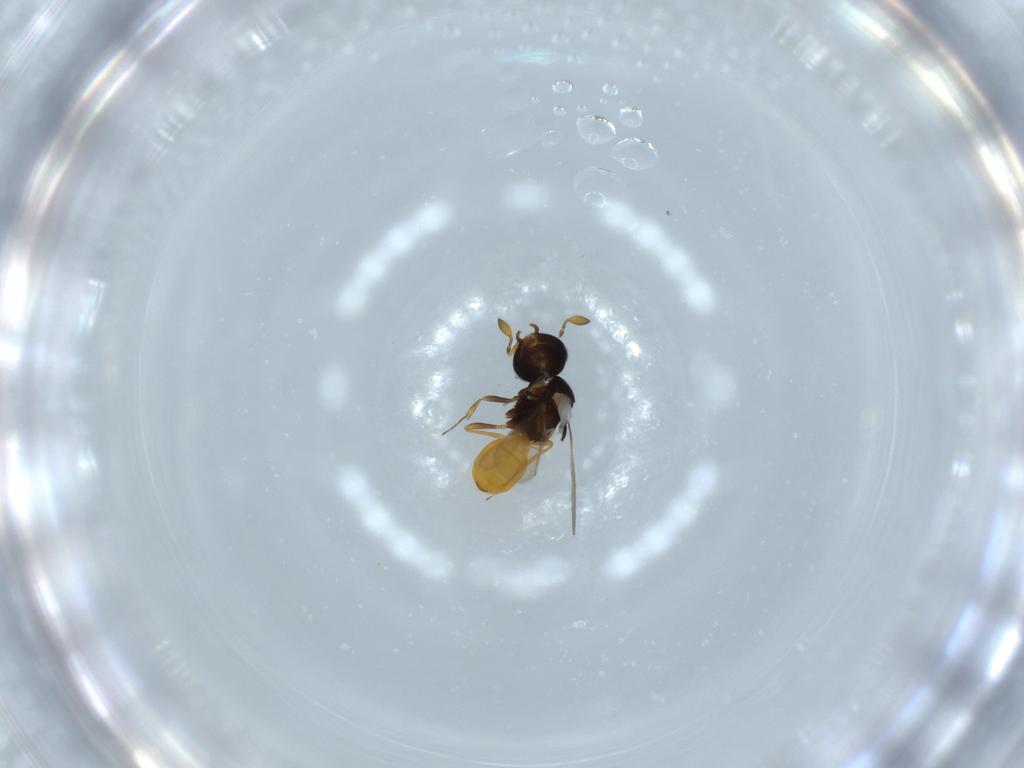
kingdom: Animalia
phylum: Arthropoda
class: Insecta
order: Hymenoptera
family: Scelionidae
